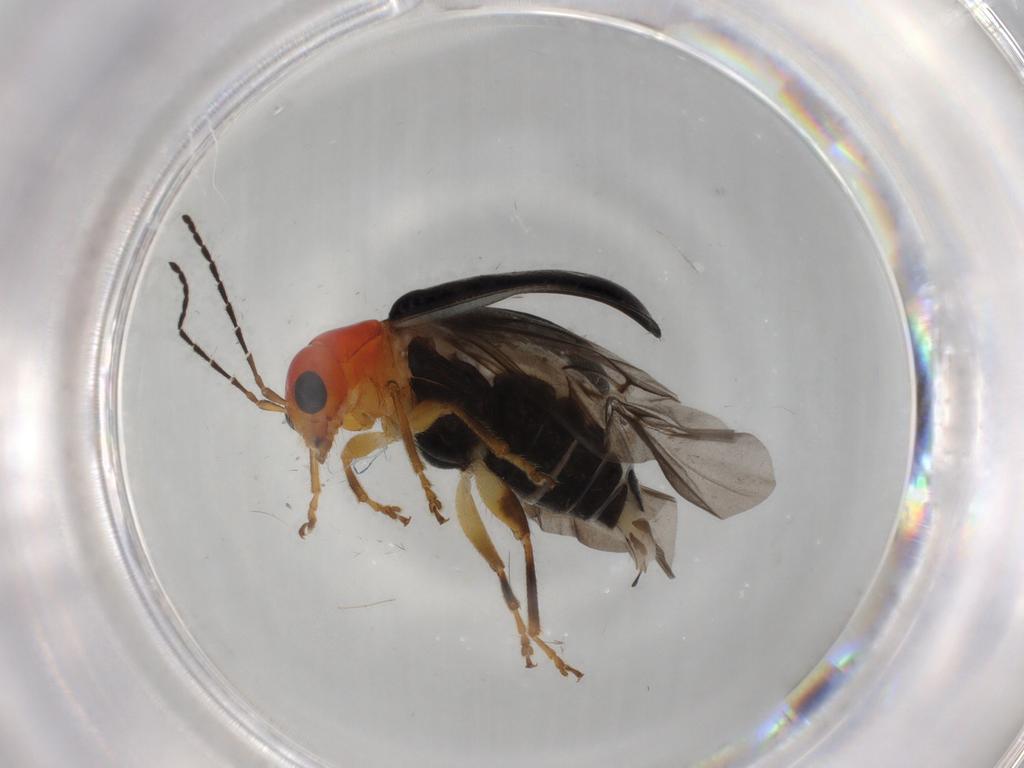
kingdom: Animalia
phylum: Arthropoda
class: Insecta
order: Coleoptera
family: Chrysomelidae
